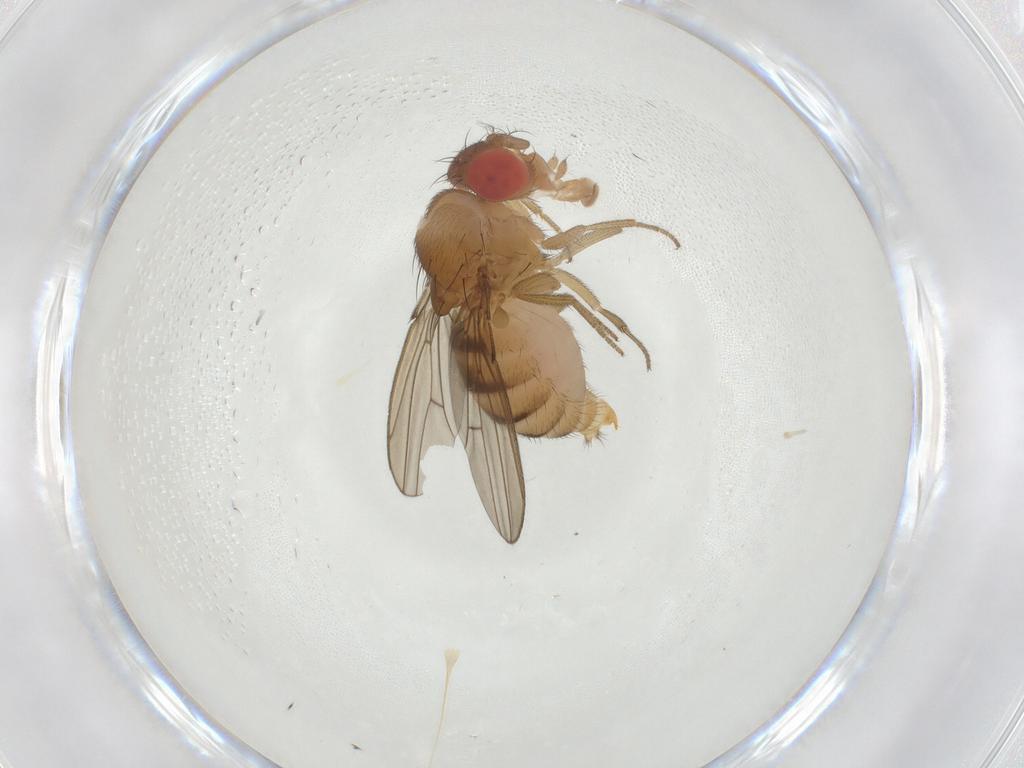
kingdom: Animalia
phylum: Arthropoda
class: Insecta
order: Diptera
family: Drosophilidae
